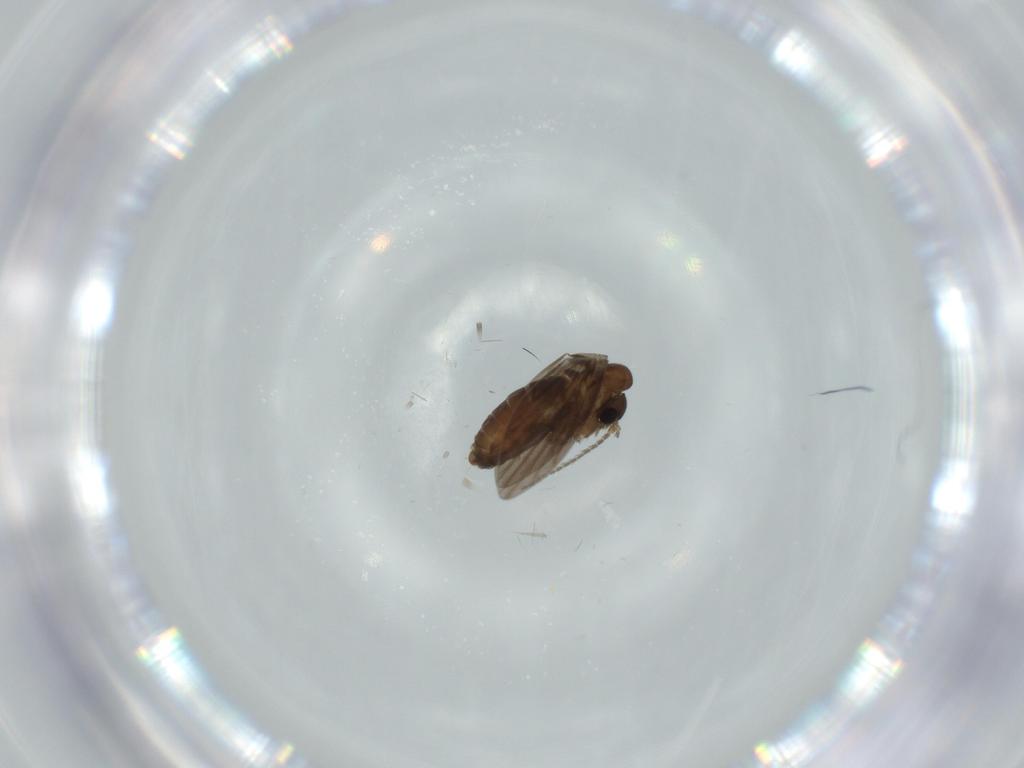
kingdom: Animalia
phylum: Arthropoda
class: Insecta
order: Diptera
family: Psychodidae
